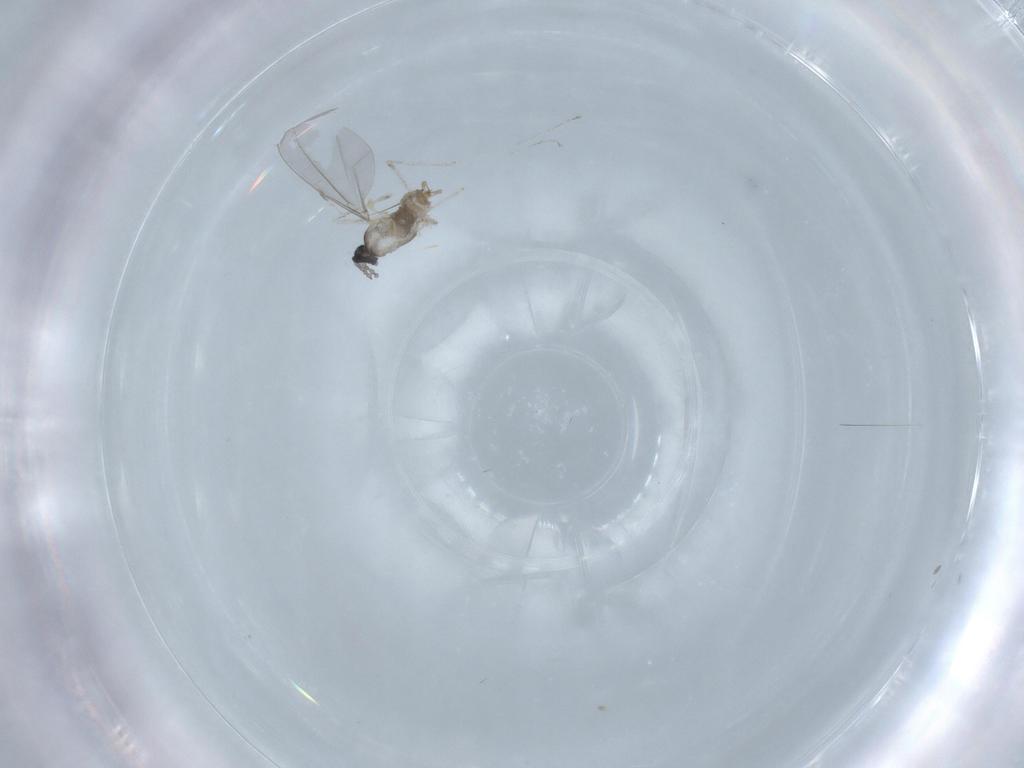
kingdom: Animalia
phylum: Arthropoda
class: Insecta
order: Diptera
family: Cecidomyiidae
